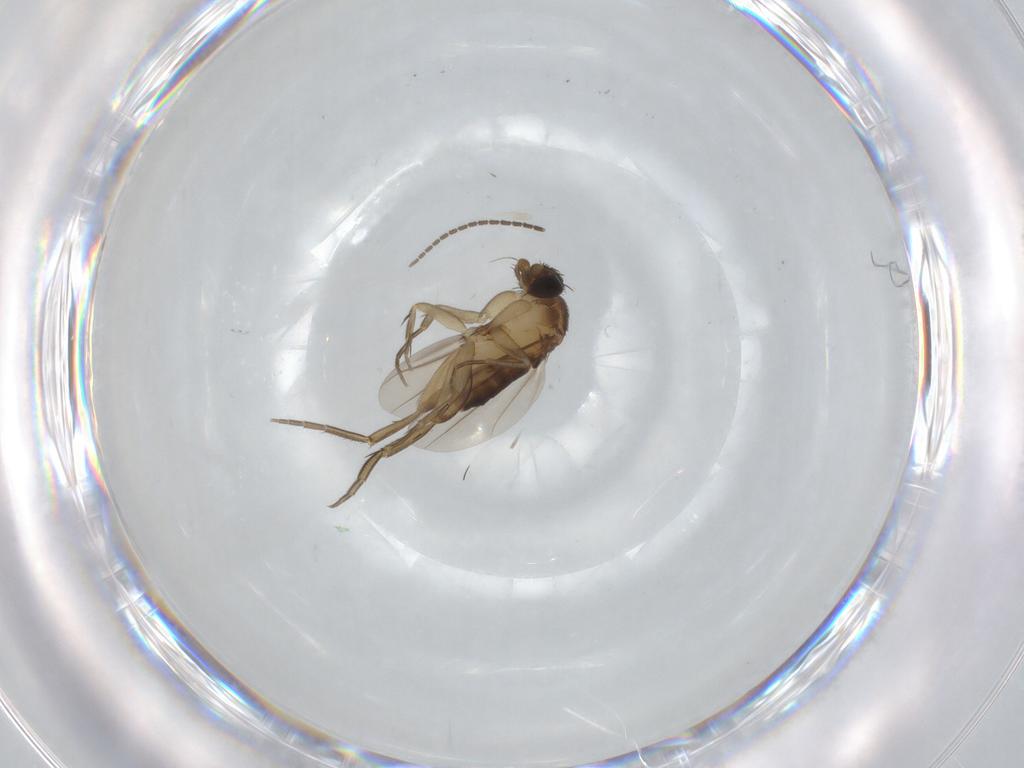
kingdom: Animalia
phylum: Arthropoda
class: Insecta
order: Diptera
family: Phoridae
